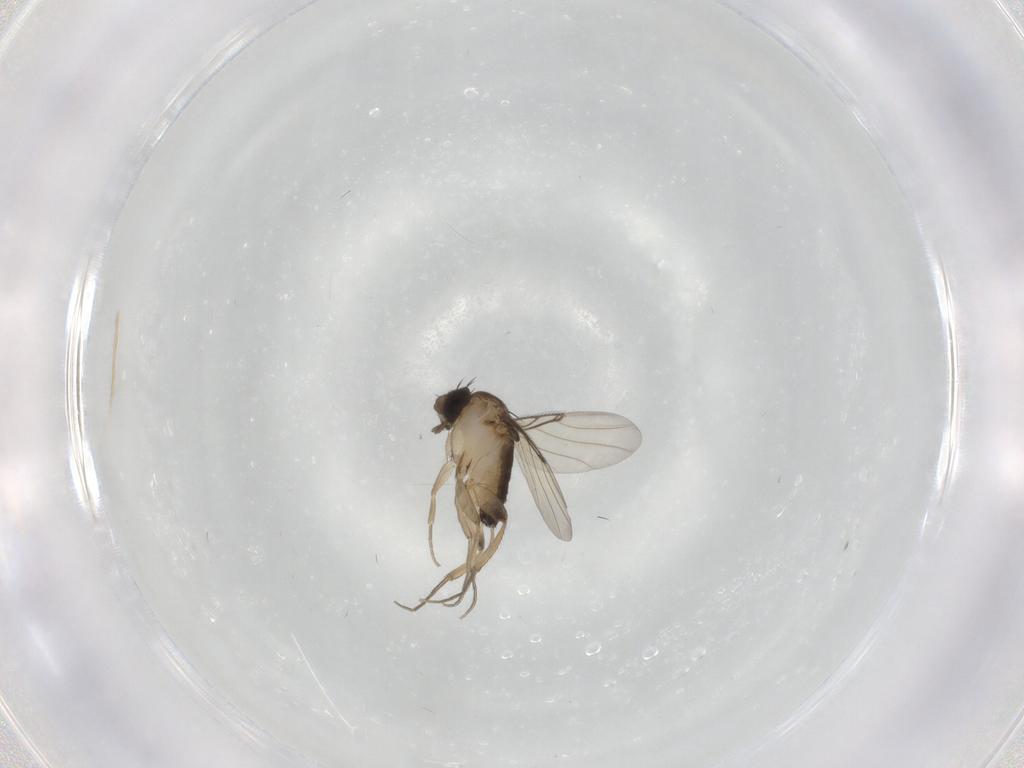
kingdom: Animalia
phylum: Arthropoda
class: Insecta
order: Diptera
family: Phoridae
